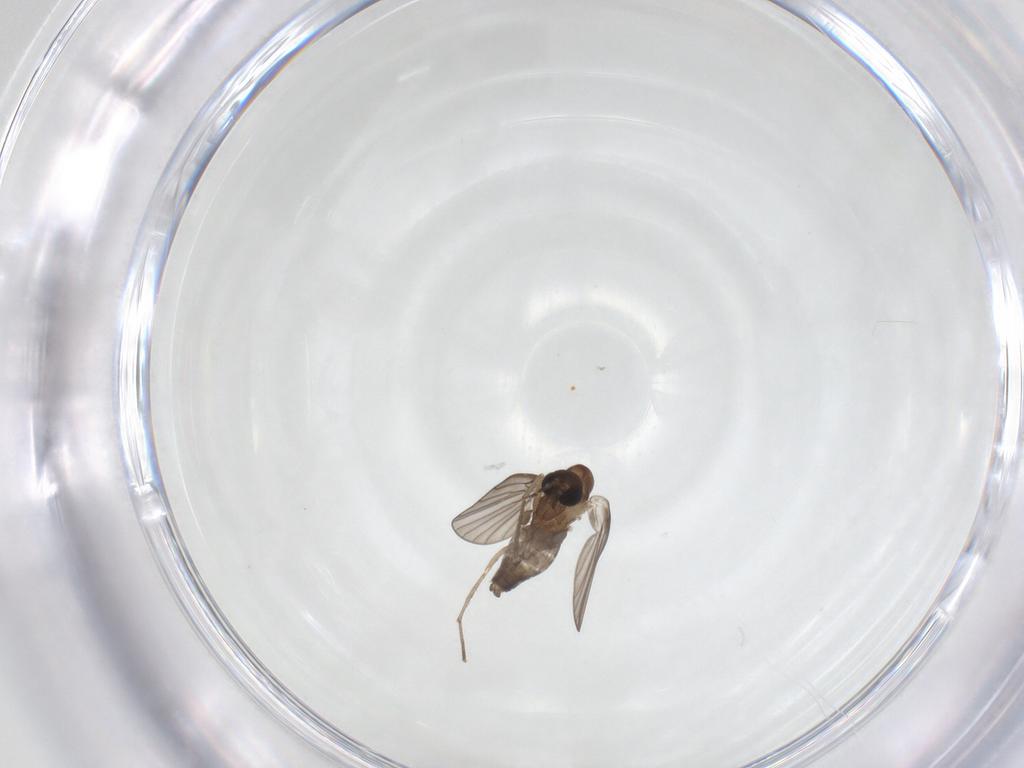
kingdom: Animalia
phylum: Arthropoda
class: Insecta
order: Diptera
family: Psychodidae
